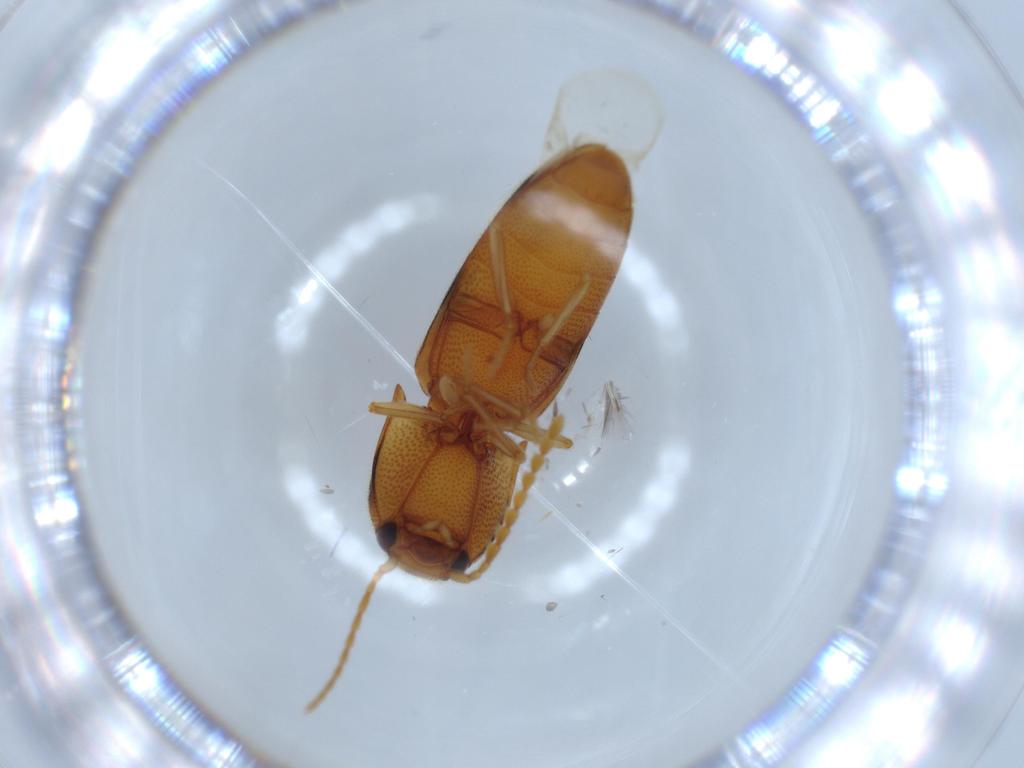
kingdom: Animalia
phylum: Arthropoda
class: Insecta
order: Coleoptera
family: Elateridae
